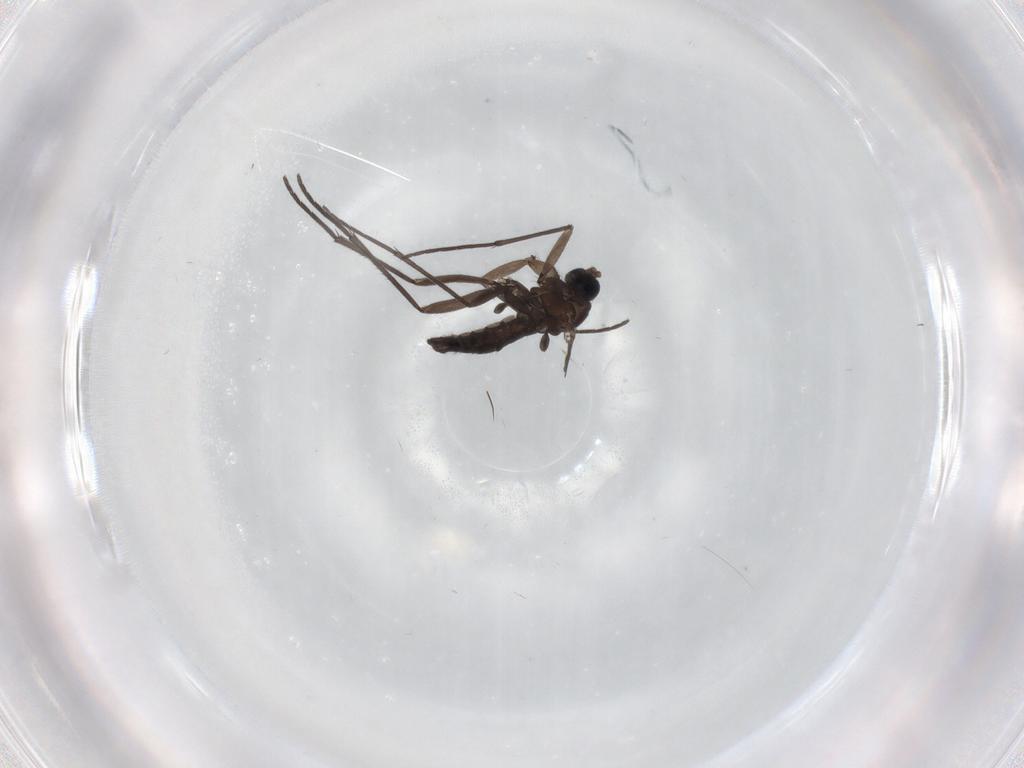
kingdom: Animalia
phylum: Arthropoda
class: Insecta
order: Diptera
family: Sciaridae
